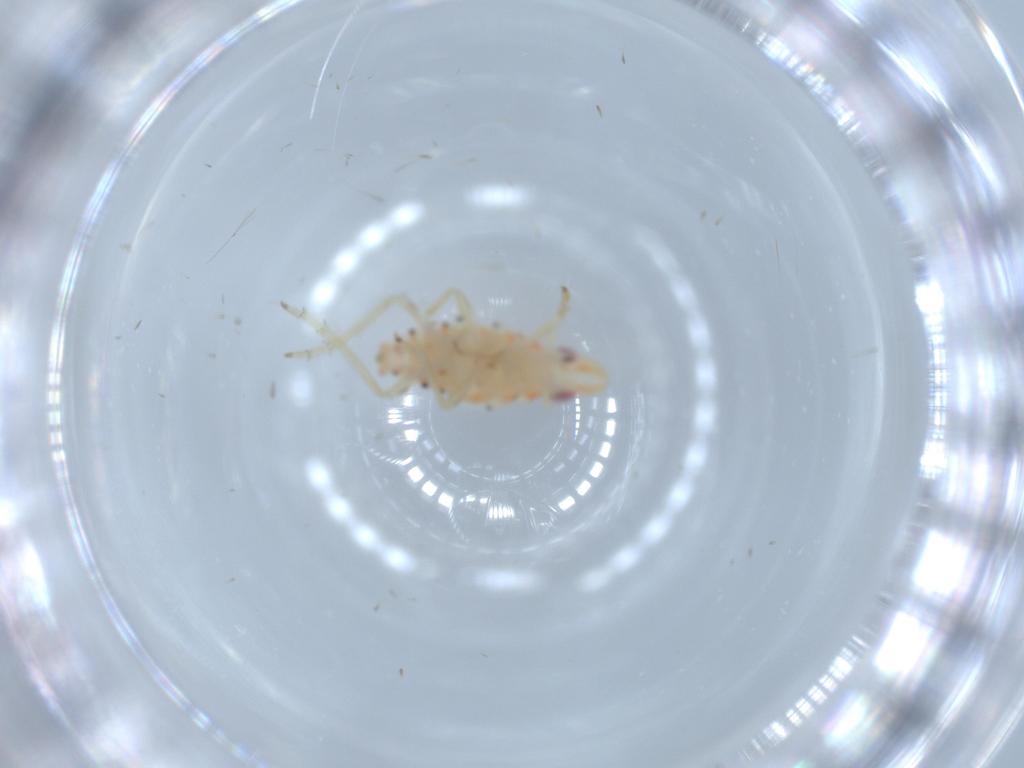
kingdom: Animalia
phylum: Arthropoda
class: Insecta
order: Hemiptera
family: Tropiduchidae
